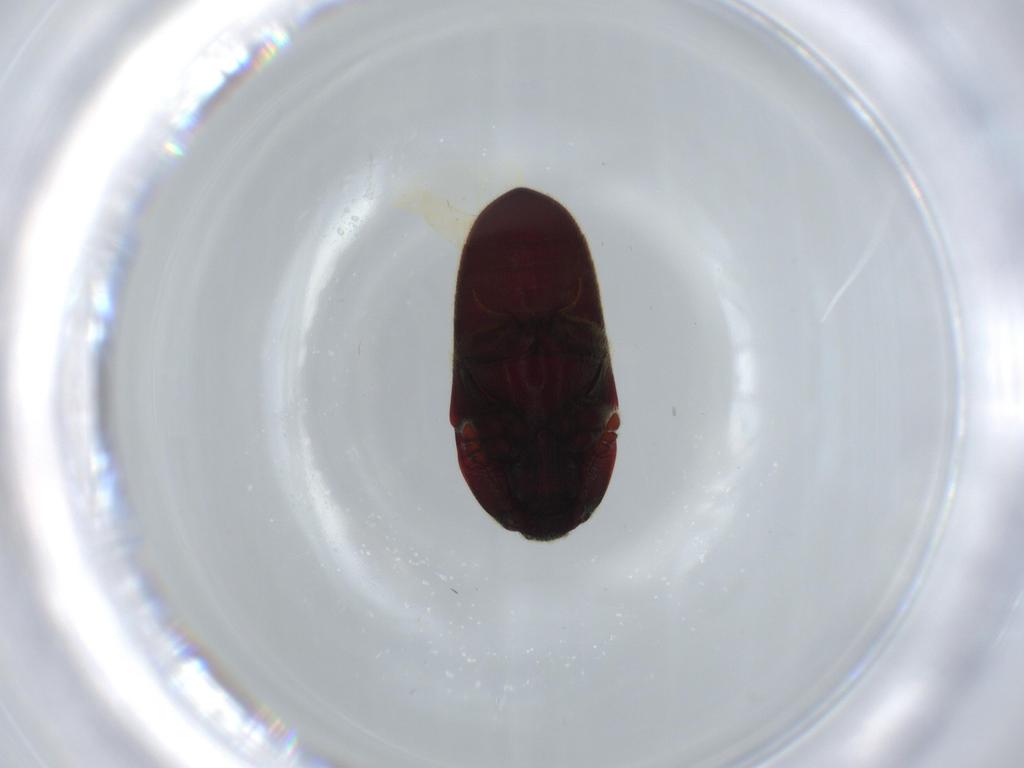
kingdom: Animalia
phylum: Arthropoda
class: Insecta
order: Coleoptera
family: Throscidae
